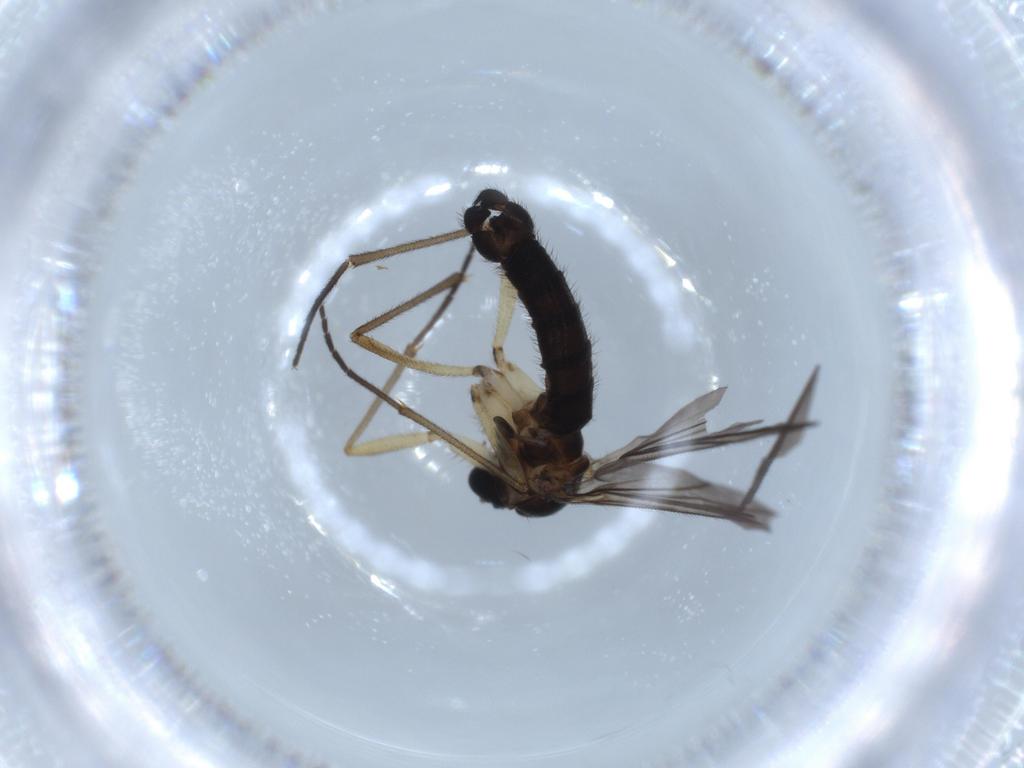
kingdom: Animalia
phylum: Arthropoda
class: Insecta
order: Diptera
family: Sciaridae
